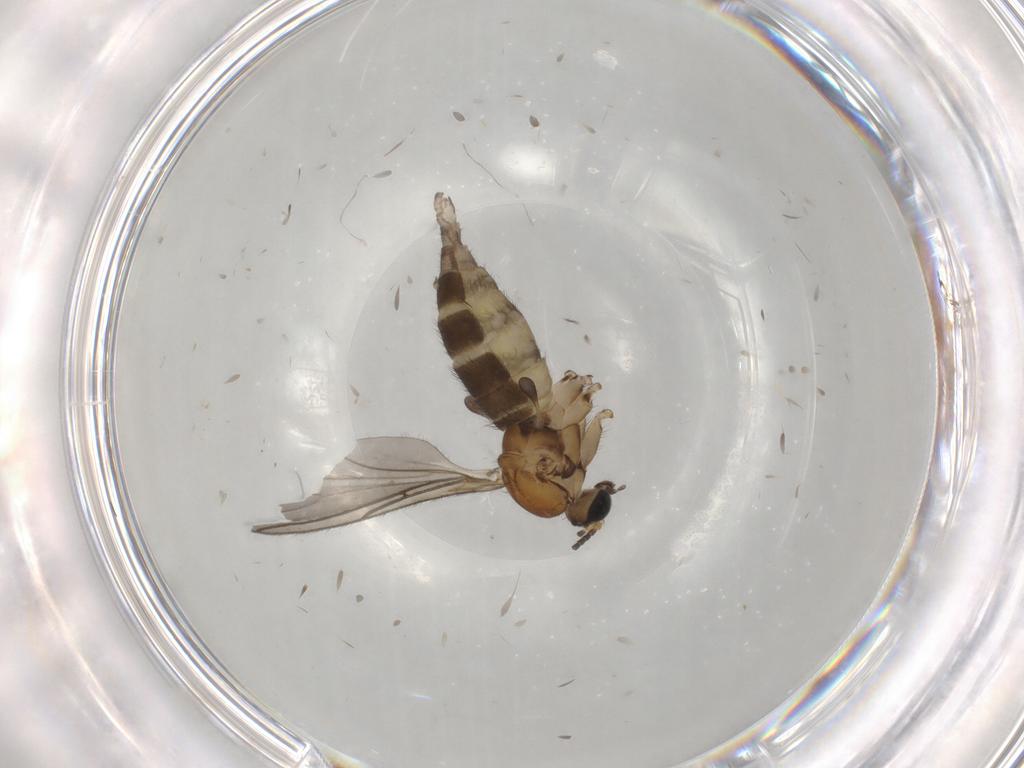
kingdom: Animalia
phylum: Arthropoda
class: Insecta
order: Diptera
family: Sciaridae
